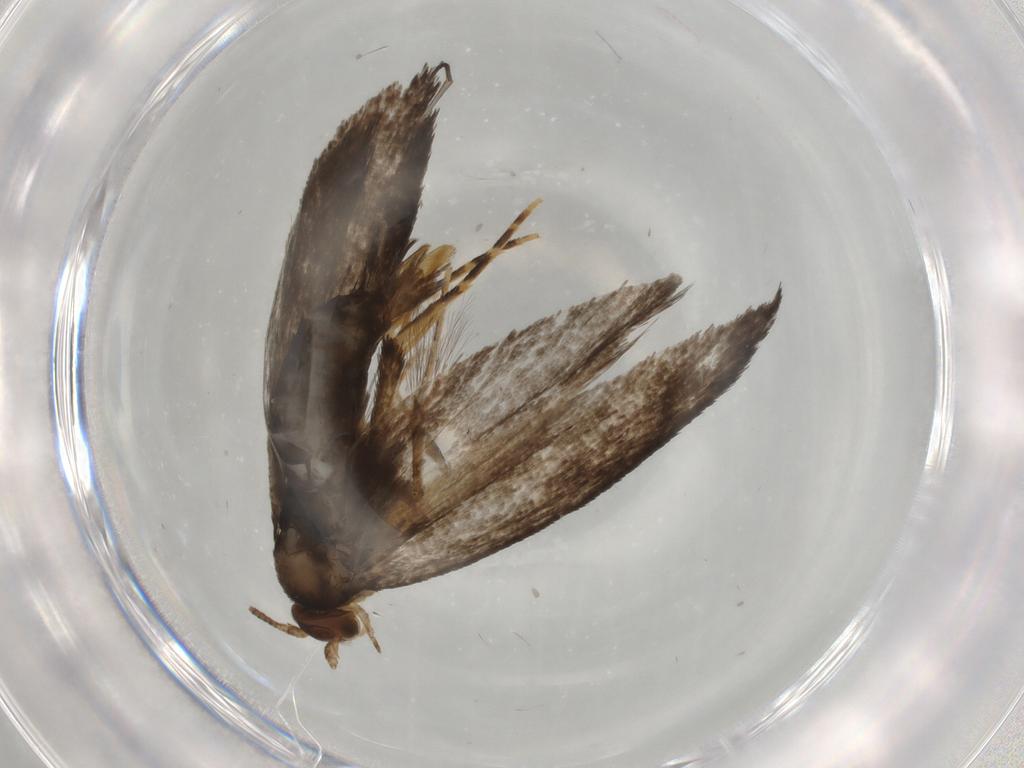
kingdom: Animalia
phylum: Arthropoda
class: Insecta
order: Lepidoptera
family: Tineidae
